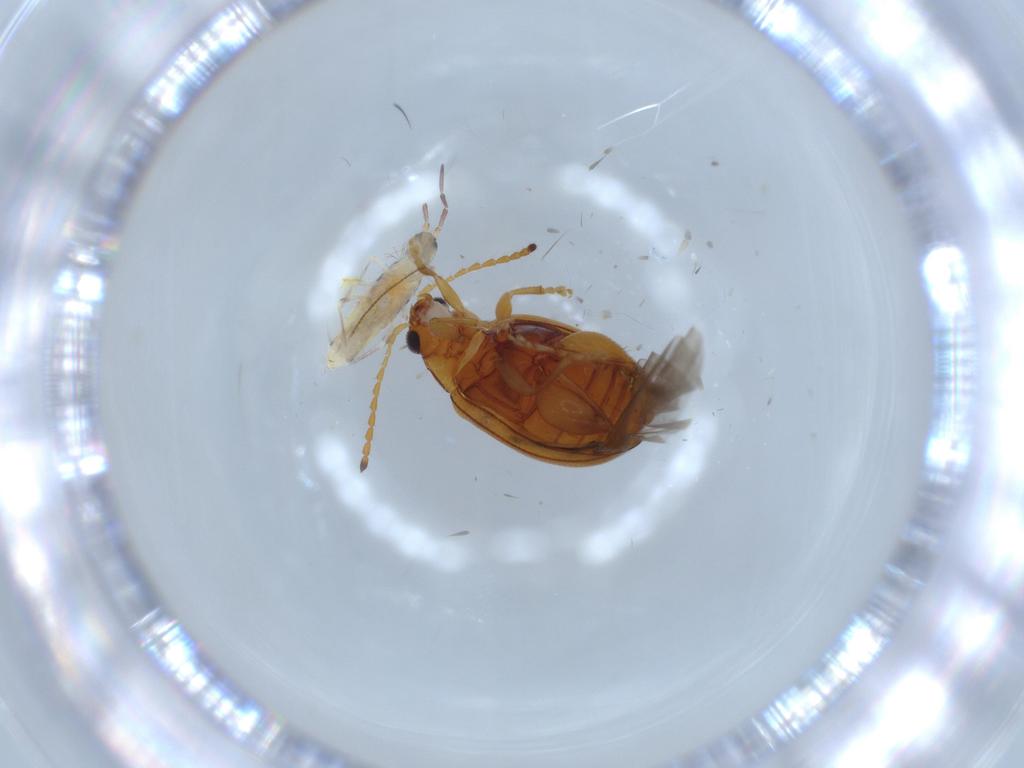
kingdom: Animalia
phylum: Arthropoda
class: Collembola
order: Entomobryomorpha
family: Entomobryidae
